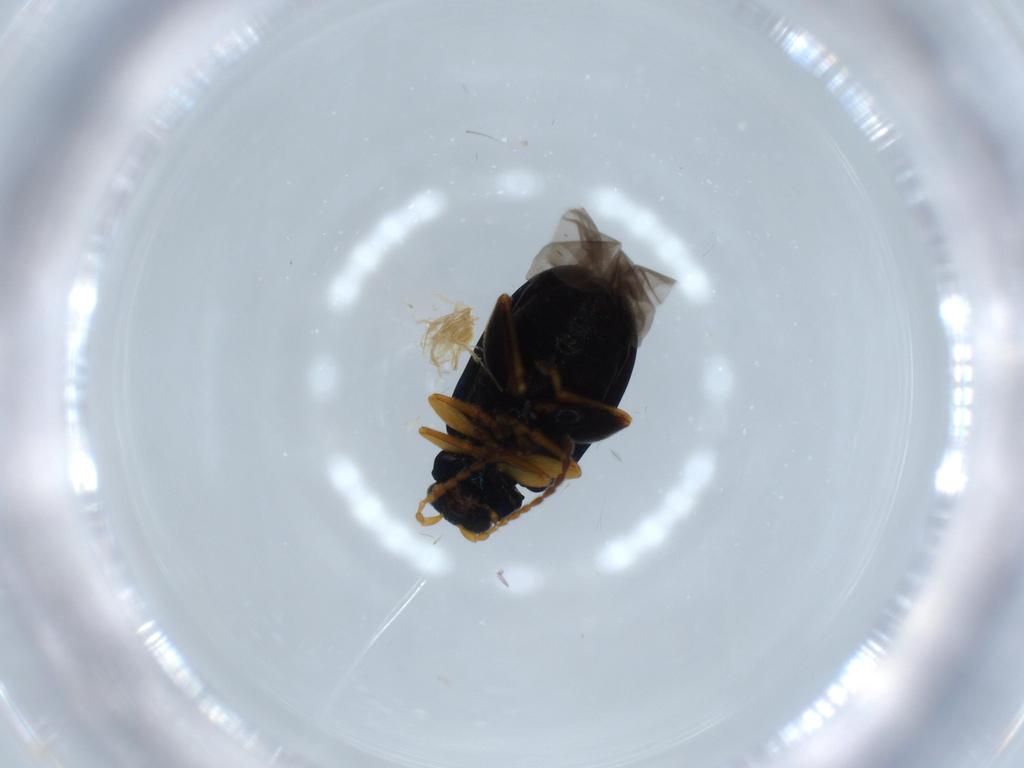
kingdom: Animalia
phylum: Arthropoda
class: Insecta
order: Coleoptera
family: Chrysomelidae
